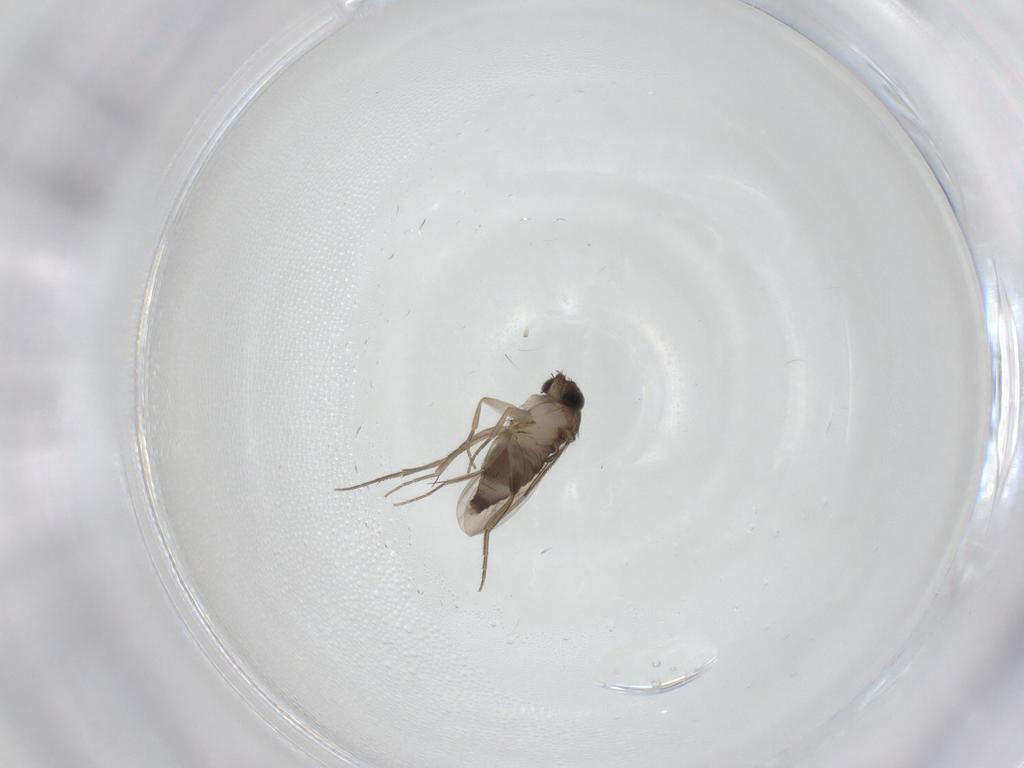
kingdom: Animalia
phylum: Arthropoda
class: Insecta
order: Diptera
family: Phoridae
